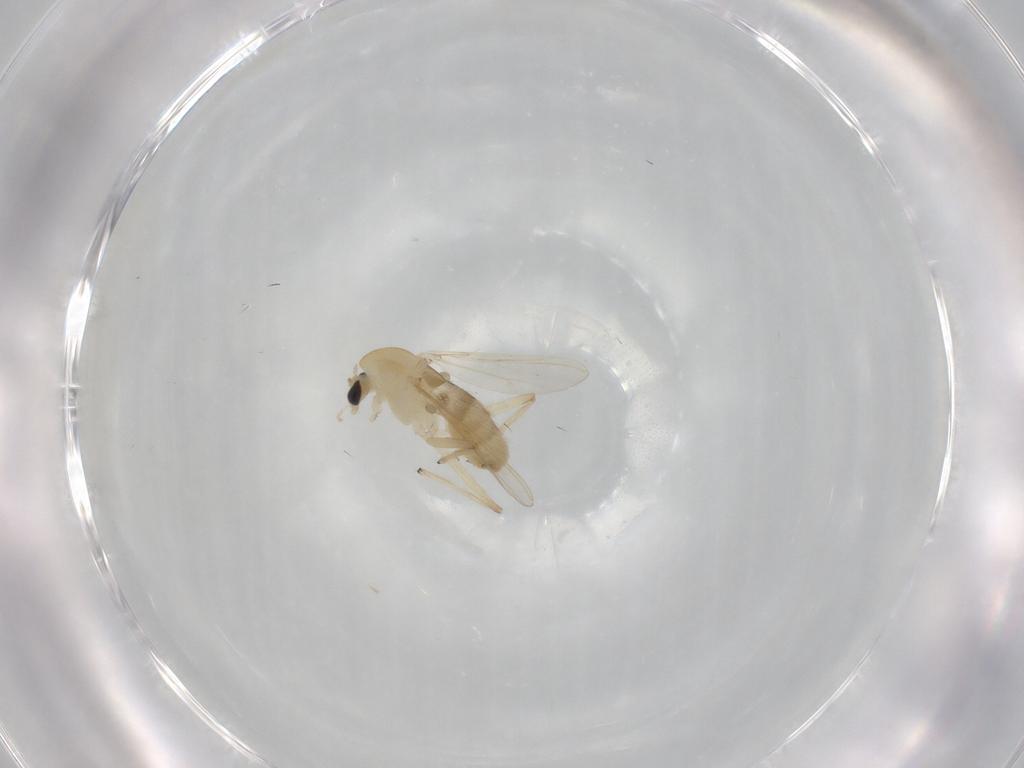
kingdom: Animalia
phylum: Arthropoda
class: Insecta
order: Diptera
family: Chironomidae
